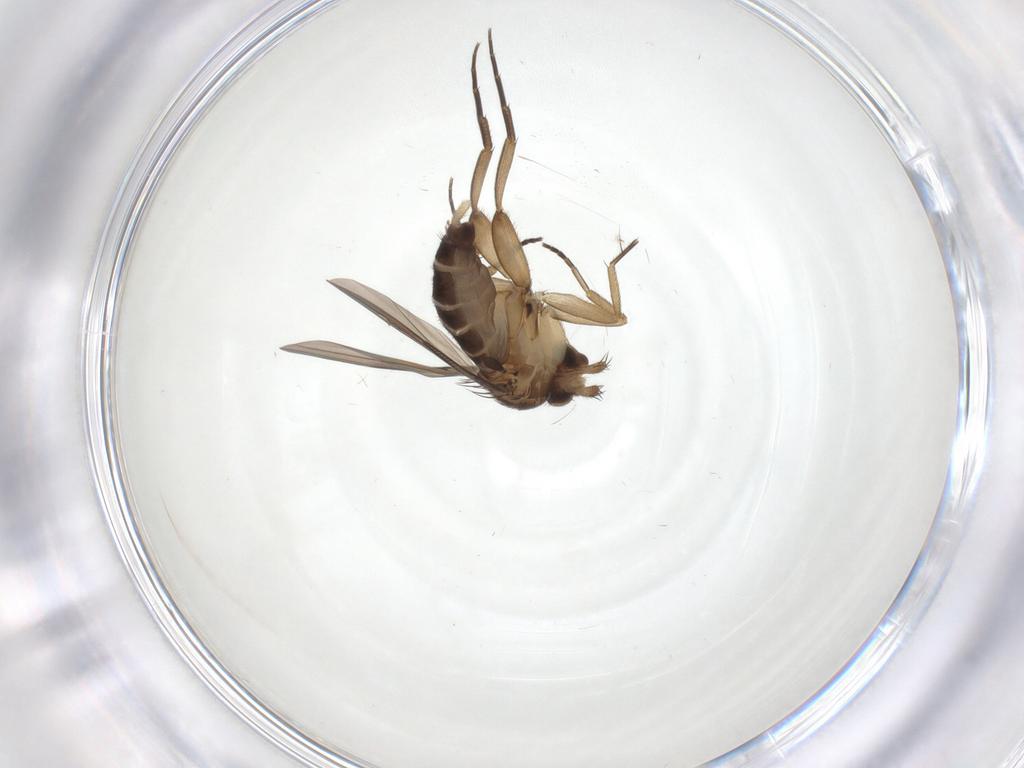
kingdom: Animalia
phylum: Arthropoda
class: Insecta
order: Diptera
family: Phoridae
